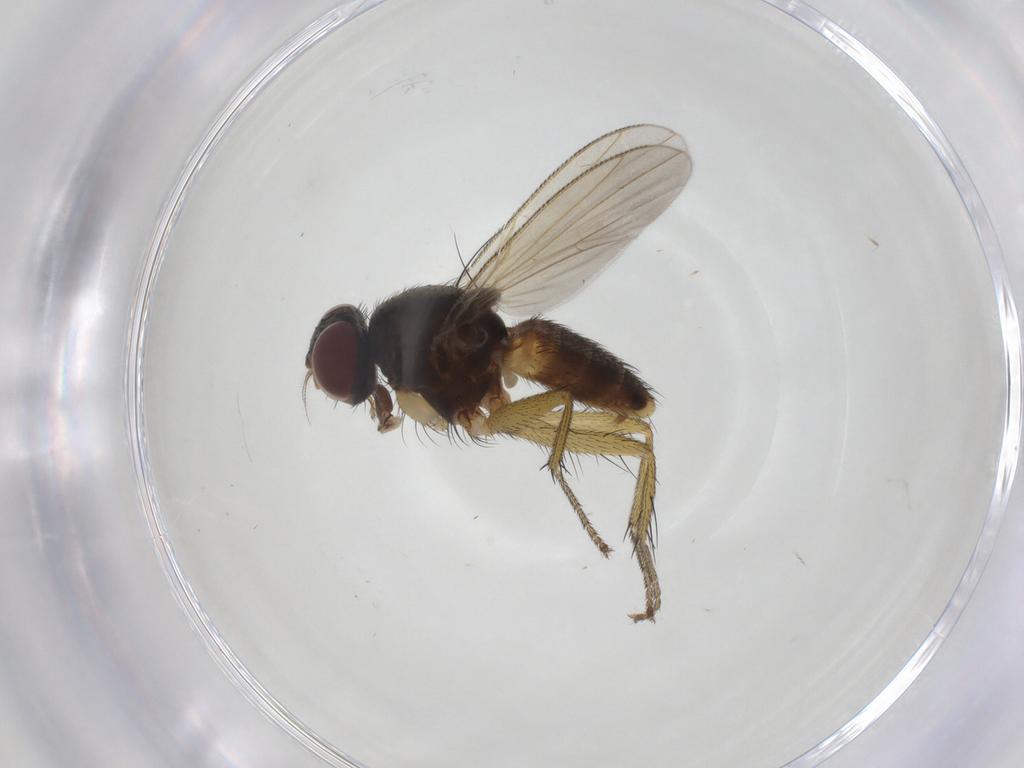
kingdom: Animalia
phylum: Arthropoda
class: Insecta
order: Diptera
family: Muscidae
